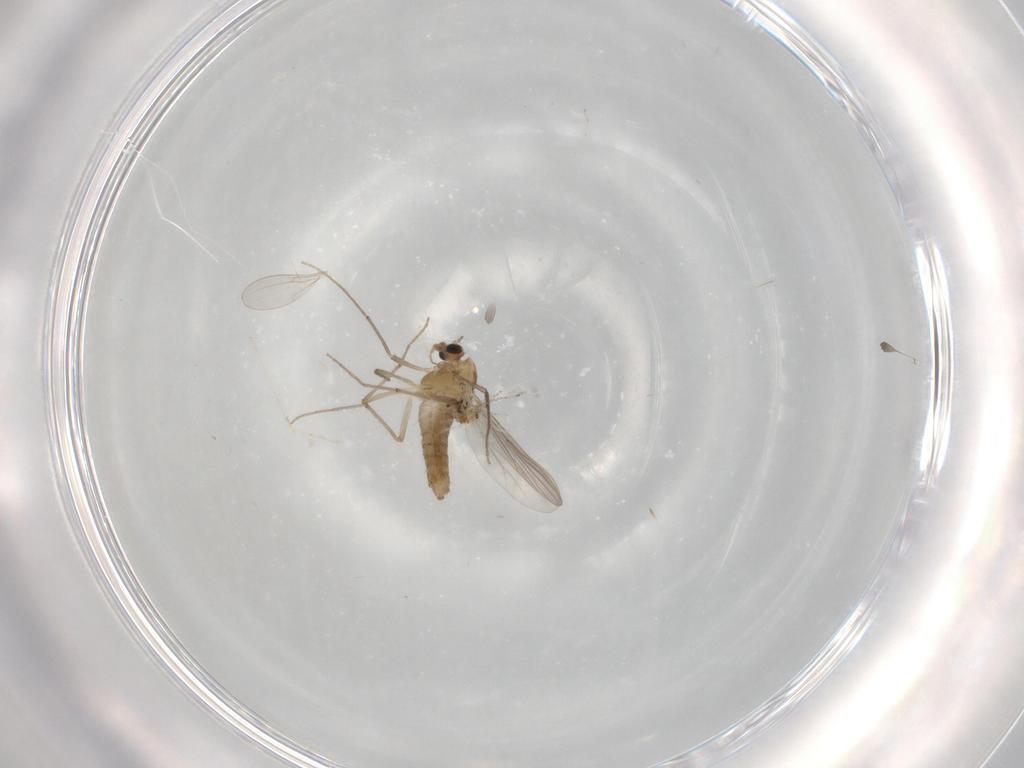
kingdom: Animalia
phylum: Arthropoda
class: Insecta
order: Diptera
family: Chironomidae
